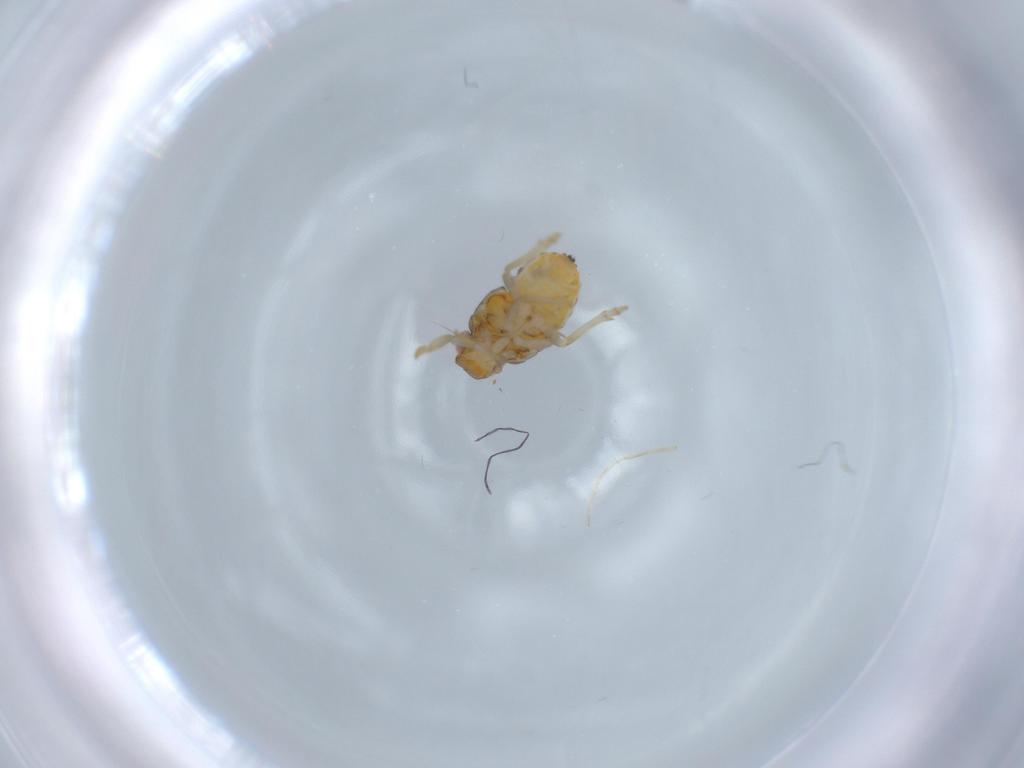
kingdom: Animalia
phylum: Arthropoda
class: Insecta
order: Hemiptera
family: Issidae
